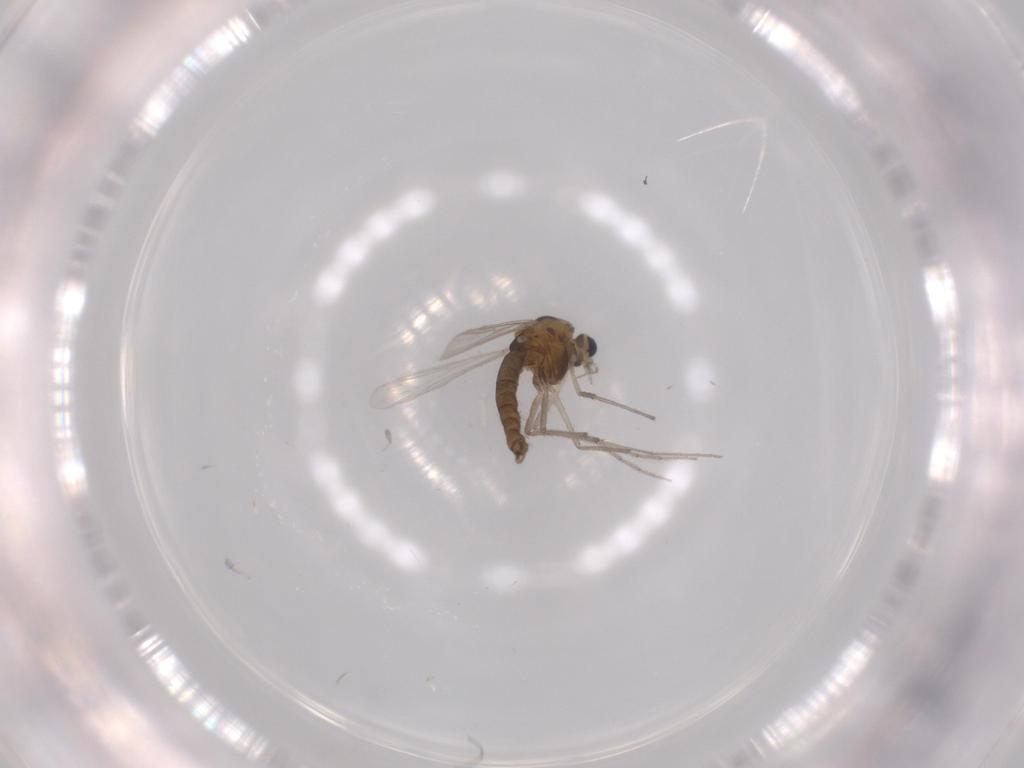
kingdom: Animalia
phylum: Arthropoda
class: Insecta
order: Diptera
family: Chironomidae
